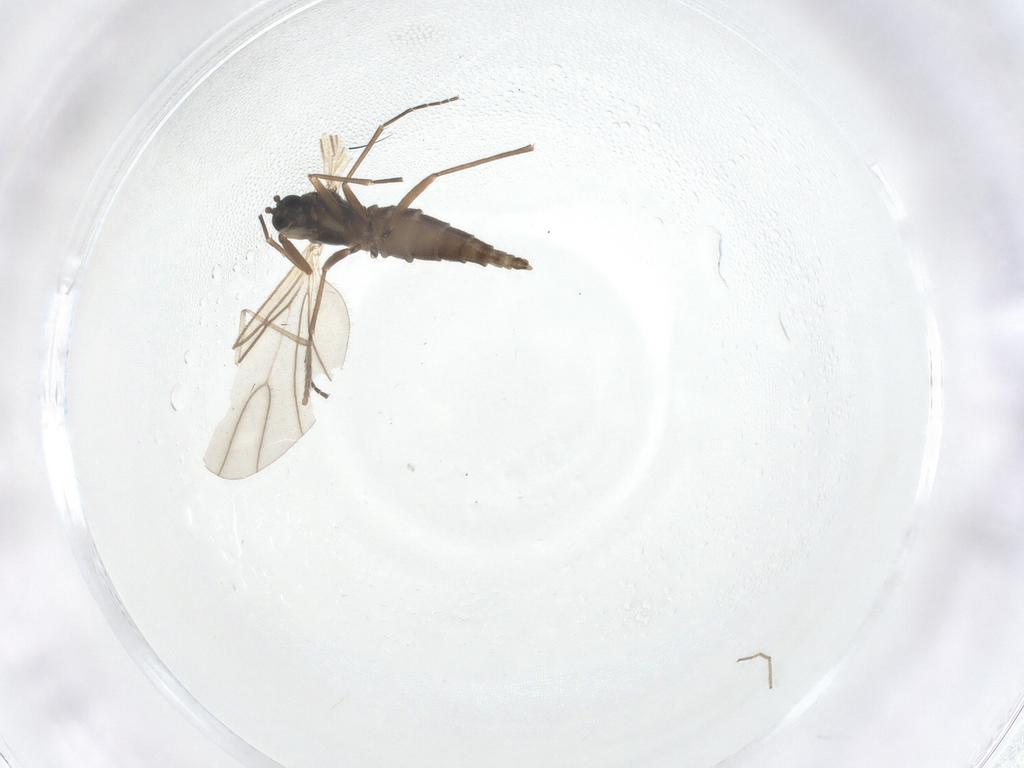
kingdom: Animalia
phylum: Arthropoda
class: Insecta
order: Diptera
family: Sciaridae
